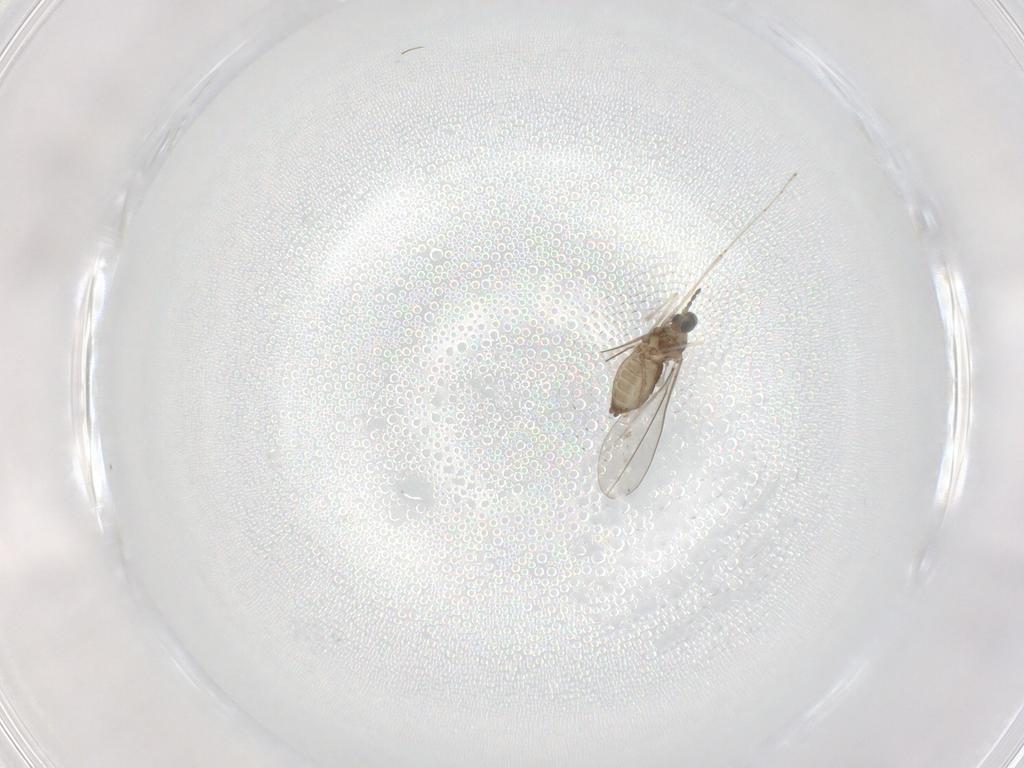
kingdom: Animalia
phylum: Arthropoda
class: Insecta
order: Diptera
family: Cecidomyiidae
